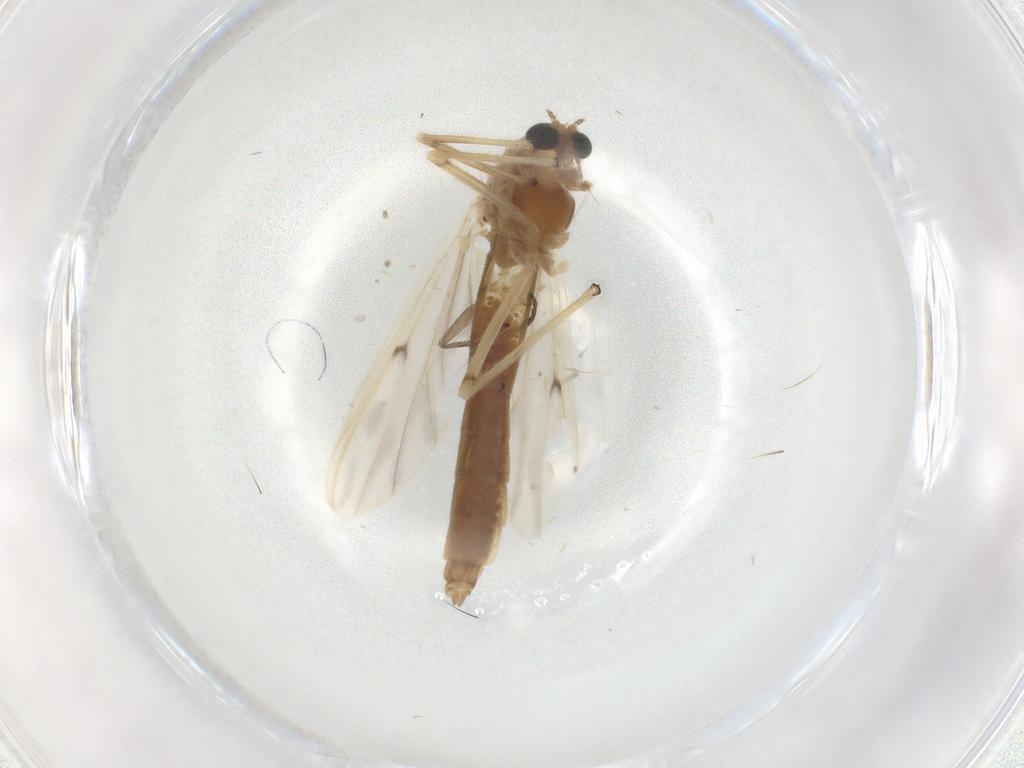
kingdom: Animalia
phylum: Arthropoda
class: Insecta
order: Diptera
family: Chironomidae
